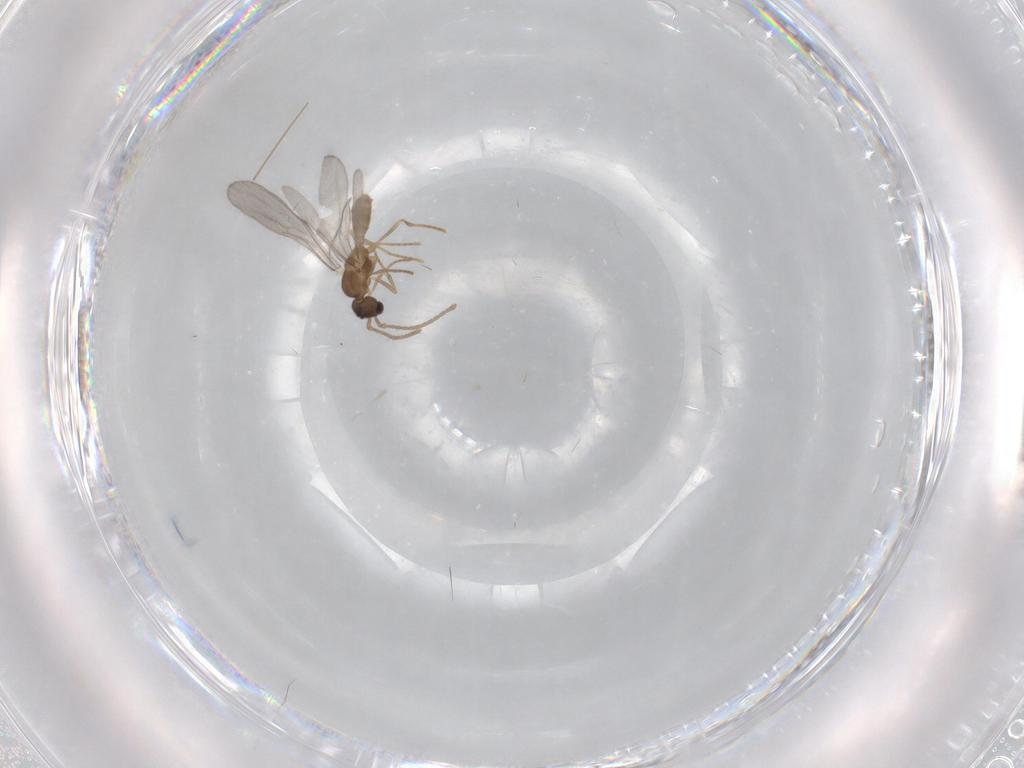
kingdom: Animalia
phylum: Arthropoda
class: Insecta
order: Hymenoptera
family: Formicidae
